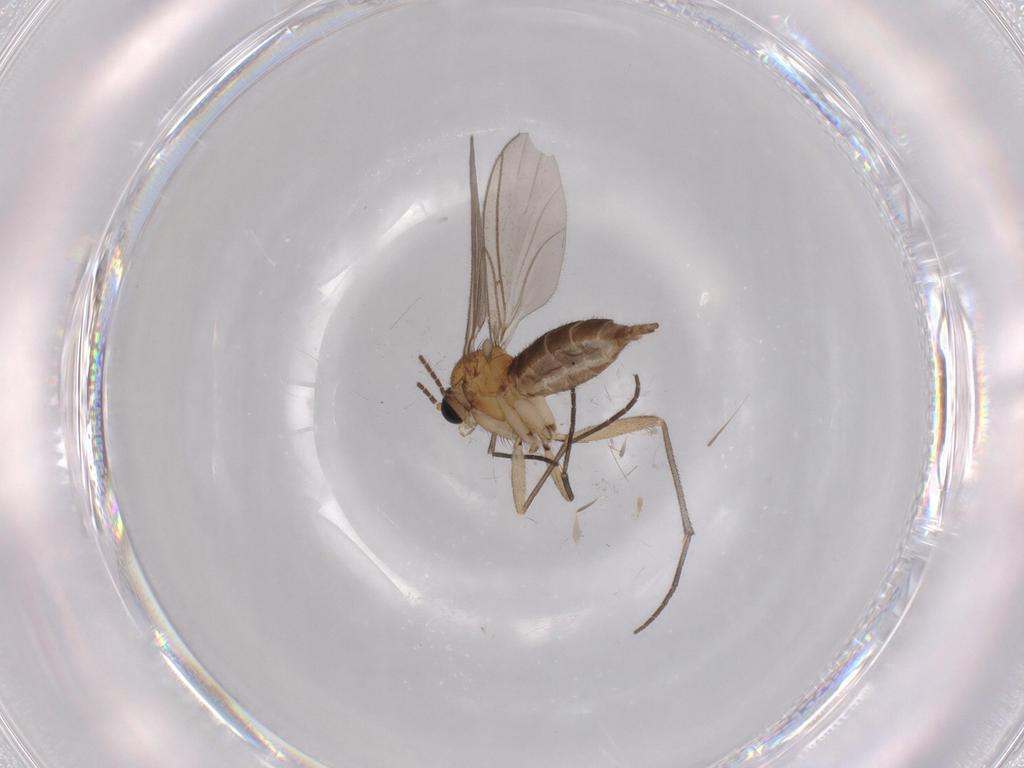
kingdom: Animalia
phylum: Arthropoda
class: Insecta
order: Diptera
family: Sciaridae
